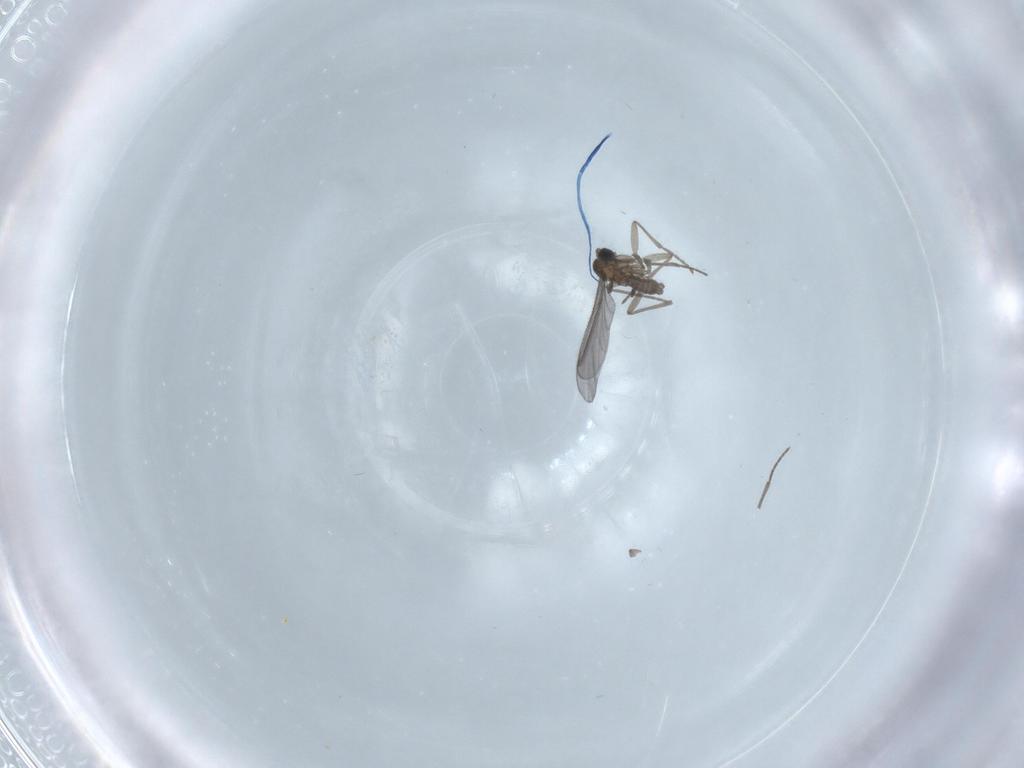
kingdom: Animalia
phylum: Arthropoda
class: Insecta
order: Diptera
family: Sciaridae
